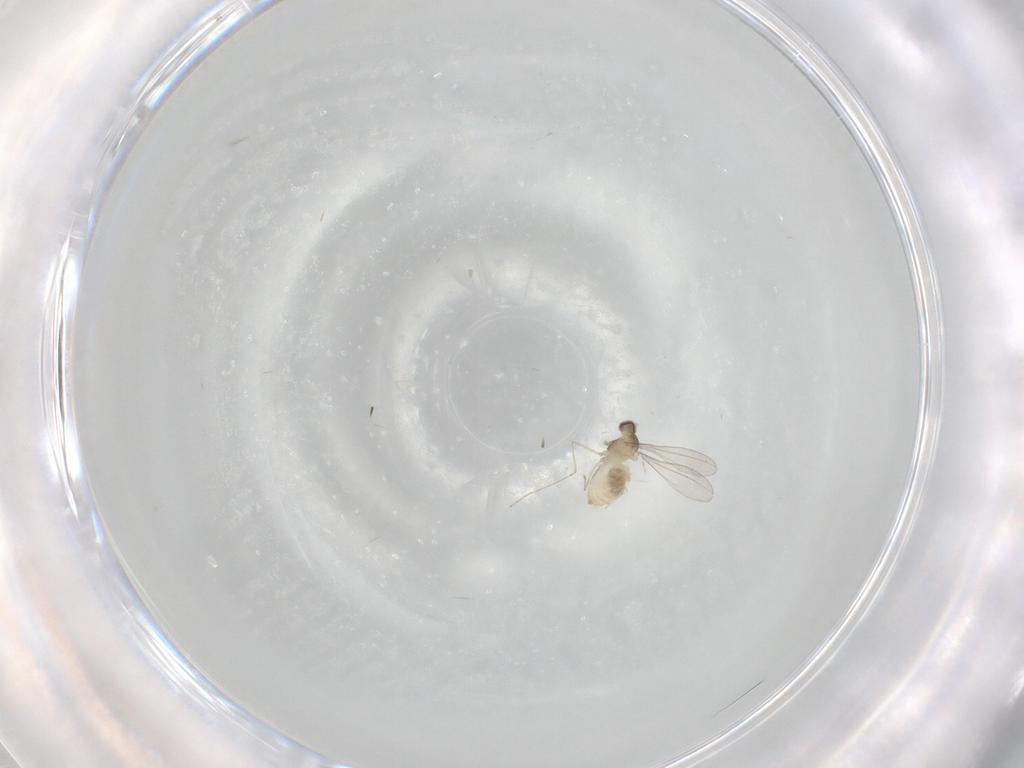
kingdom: Animalia
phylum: Arthropoda
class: Insecta
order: Diptera
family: Cecidomyiidae
